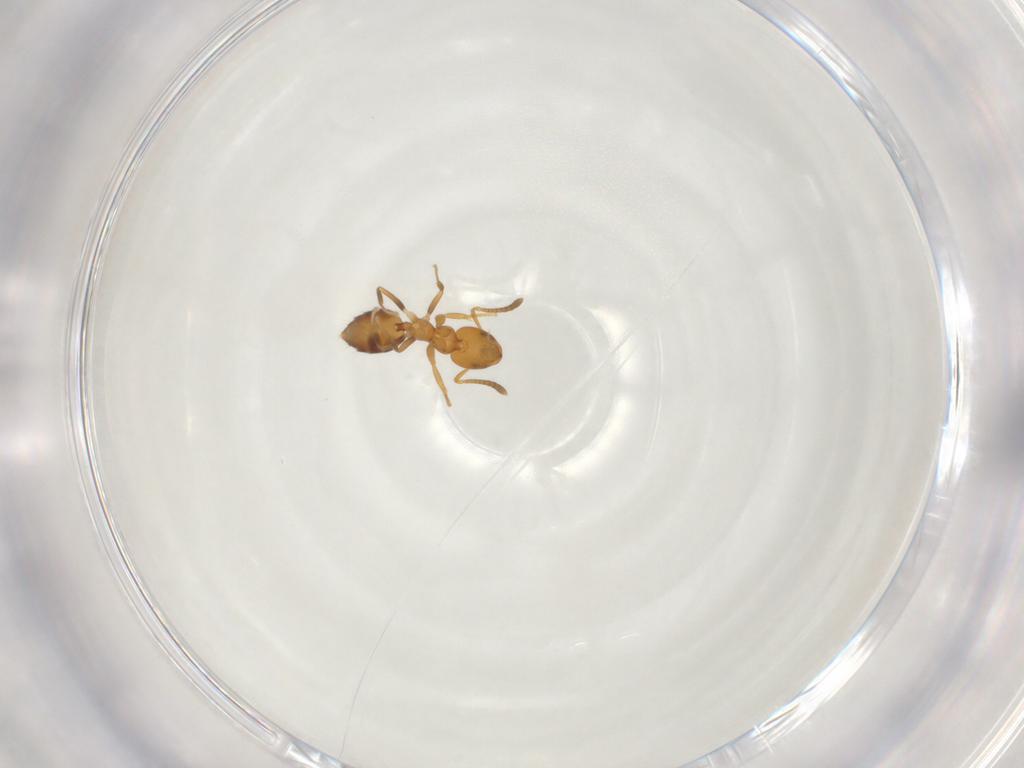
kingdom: Animalia
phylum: Arthropoda
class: Insecta
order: Hymenoptera
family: Formicidae
